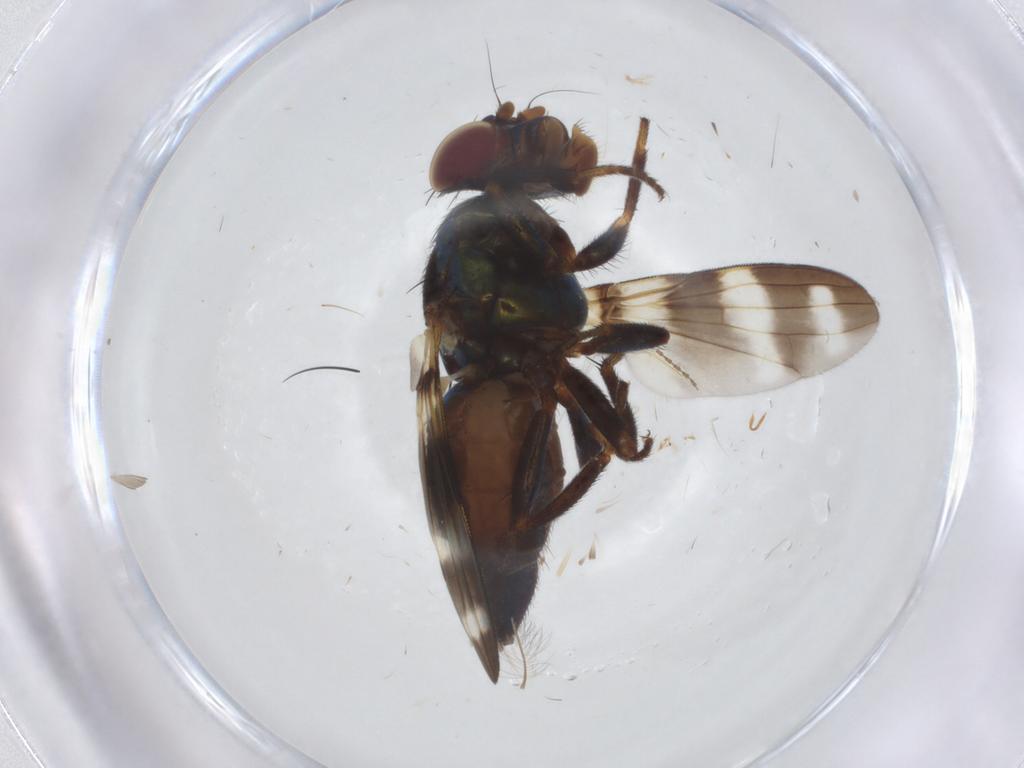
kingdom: Animalia
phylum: Arthropoda
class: Insecta
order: Diptera
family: Ulidiidae
